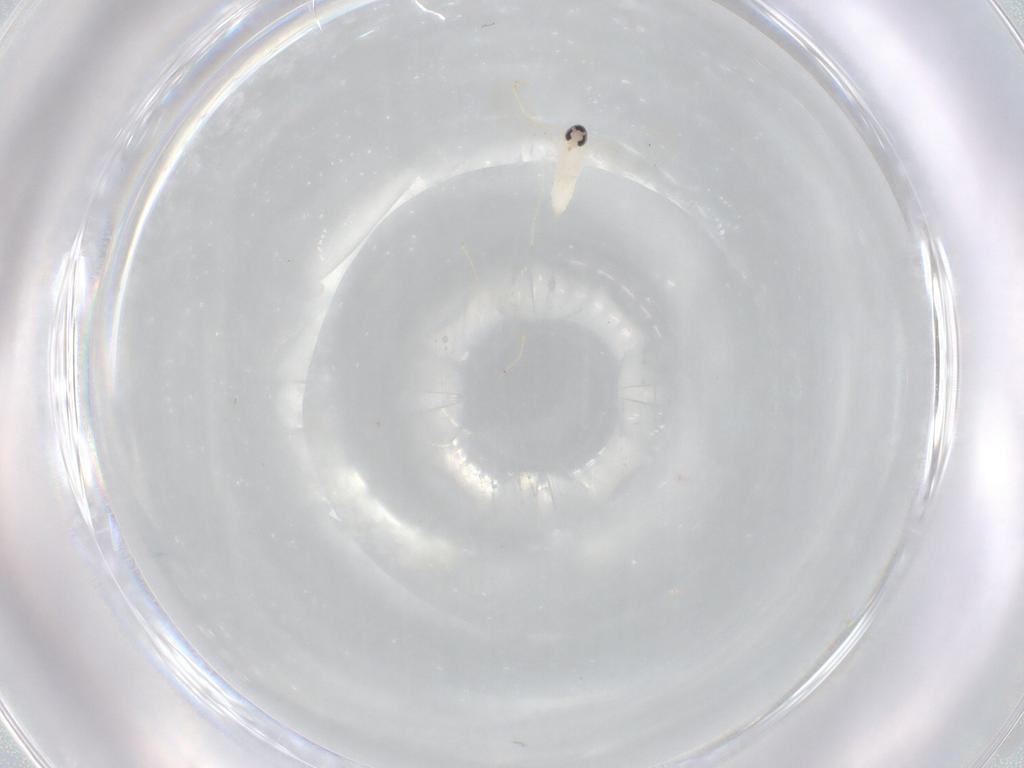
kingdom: Animalia
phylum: Arthropoda
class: Insecta
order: Diptera
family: Cecidomyiidae
